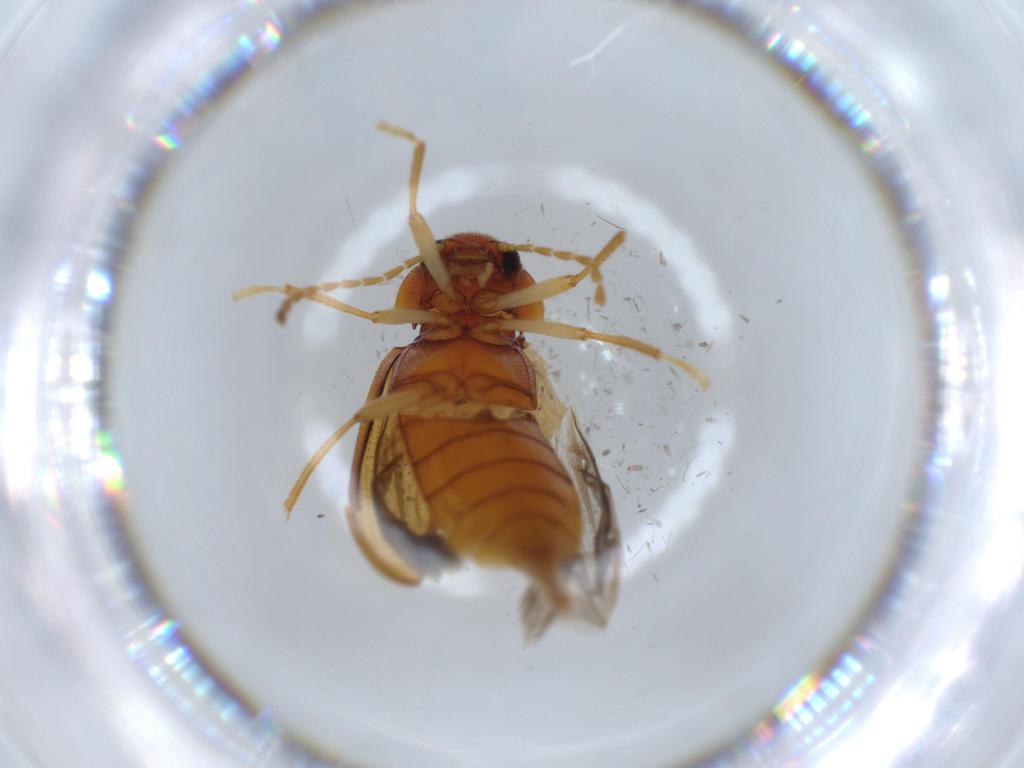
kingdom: Animalia
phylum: Arthropoda
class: Insecta
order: Coleoptera
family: Ptilodactylidae
